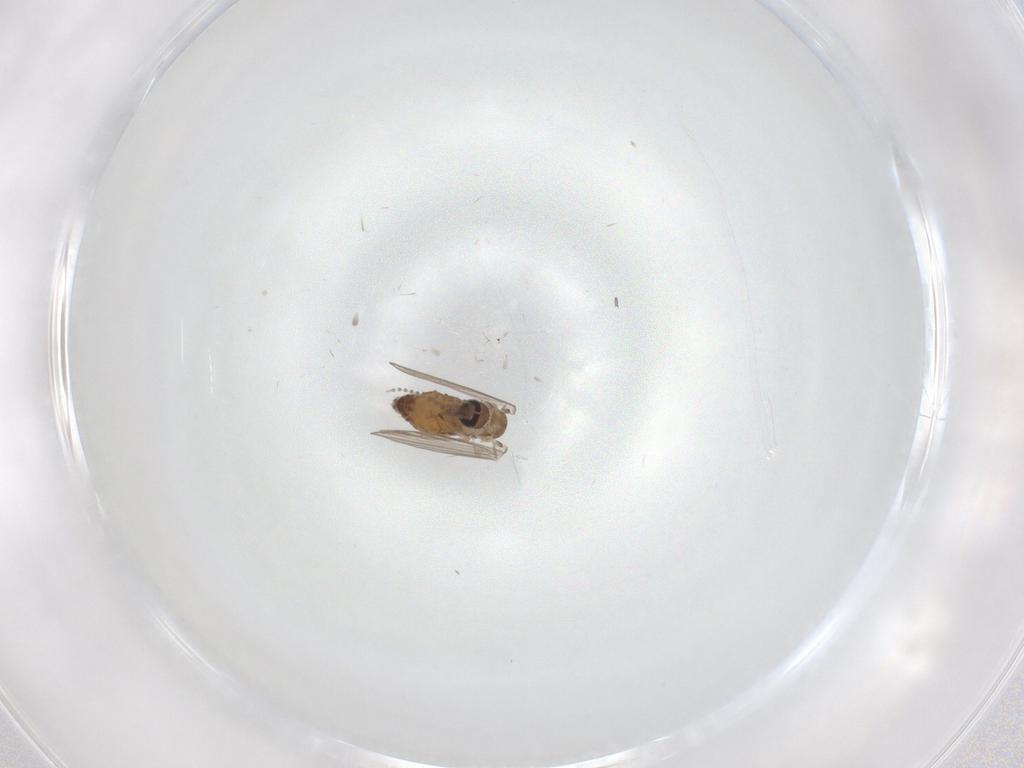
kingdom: Animalia
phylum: Arthropoda
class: Insecta
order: Diptera
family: Psychodidae
